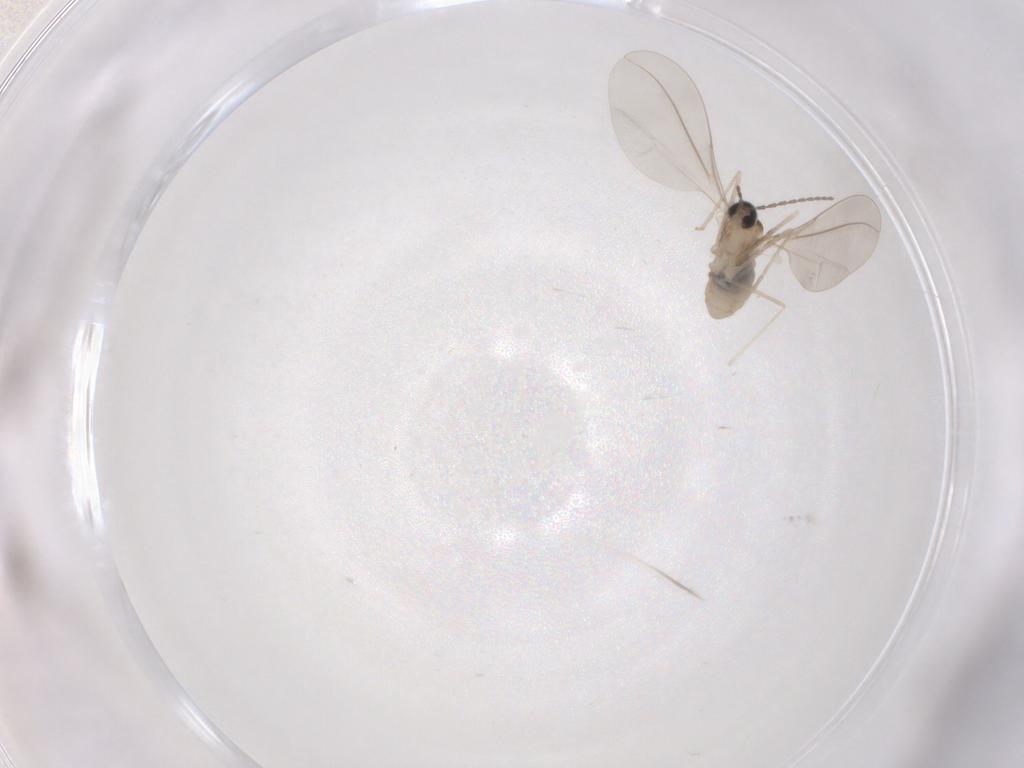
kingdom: Animalia
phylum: Arthropoda
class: Insecta
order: Diptera
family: Cecidomyiidae
